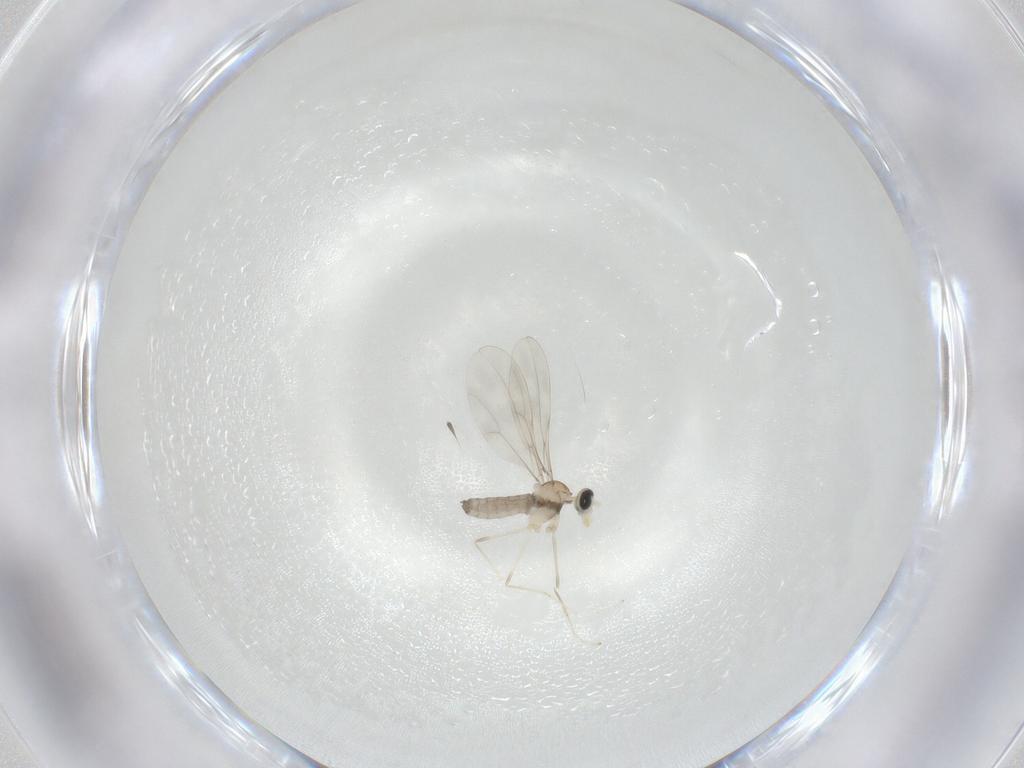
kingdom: Animalia
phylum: Arthropoda
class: Insecta
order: Diptera
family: Cecidomyiidae
